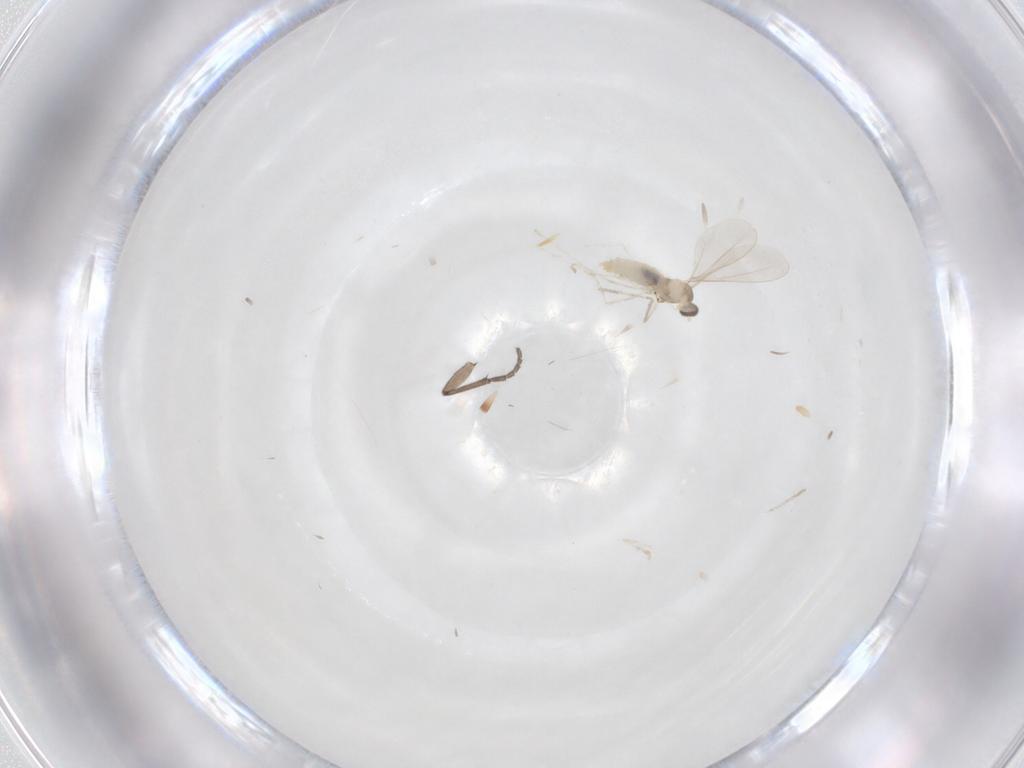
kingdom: Animalia
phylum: Arthropoda
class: Insecta
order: Diptera
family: Cecidomyiidae
